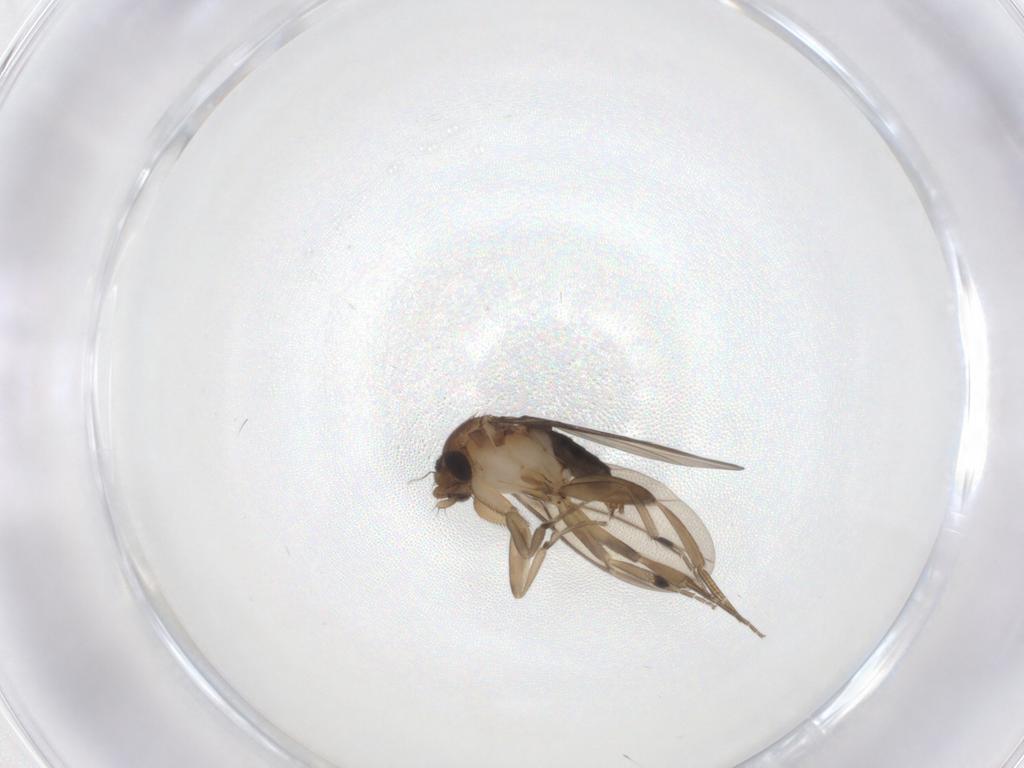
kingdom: Animalia
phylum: Arthropoda
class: Insecta
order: Diptera
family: Phoridae
